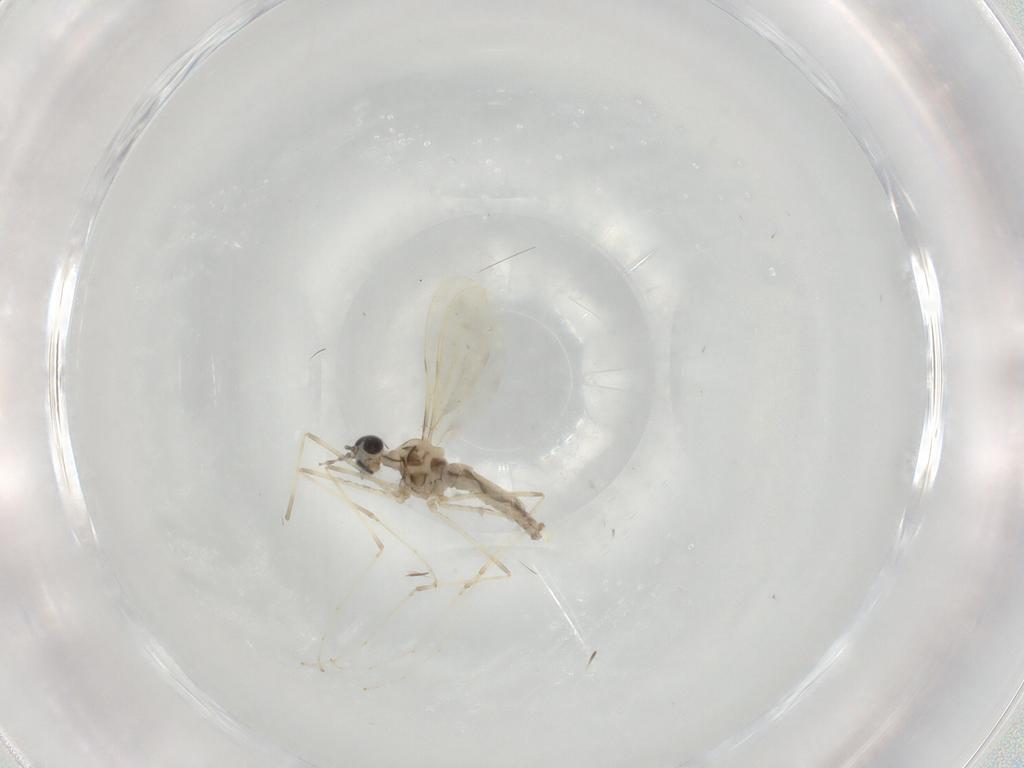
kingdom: Animalia
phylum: Arthropoda
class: Insecta
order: Diptera
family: Cecidomyiidae
